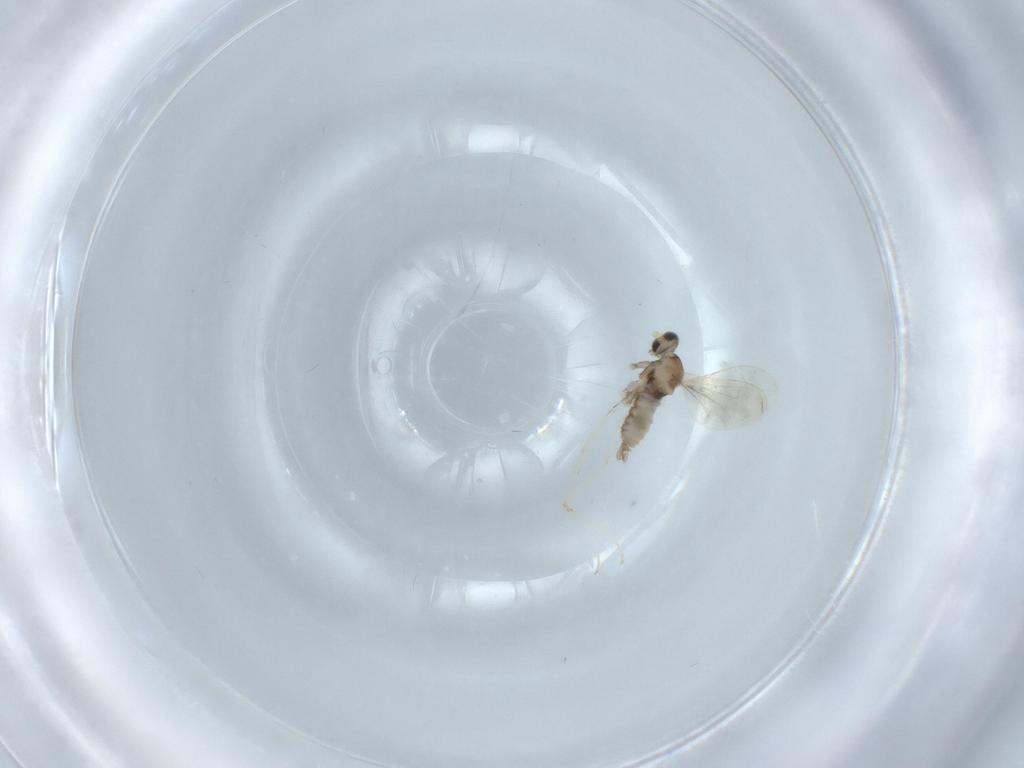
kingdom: Animalia
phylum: Arthropoda
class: Insecta
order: Diptera
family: Cecidomyiidae
